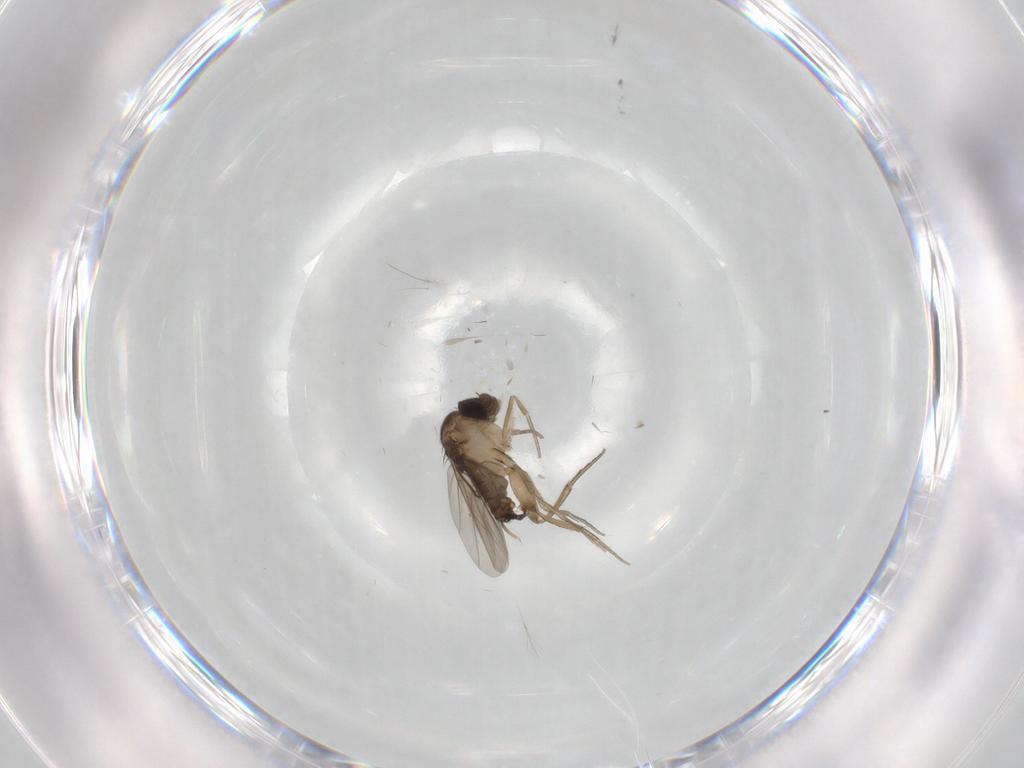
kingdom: Animalia
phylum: Arthropoda
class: Insecta
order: Diptera
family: Phoridae
